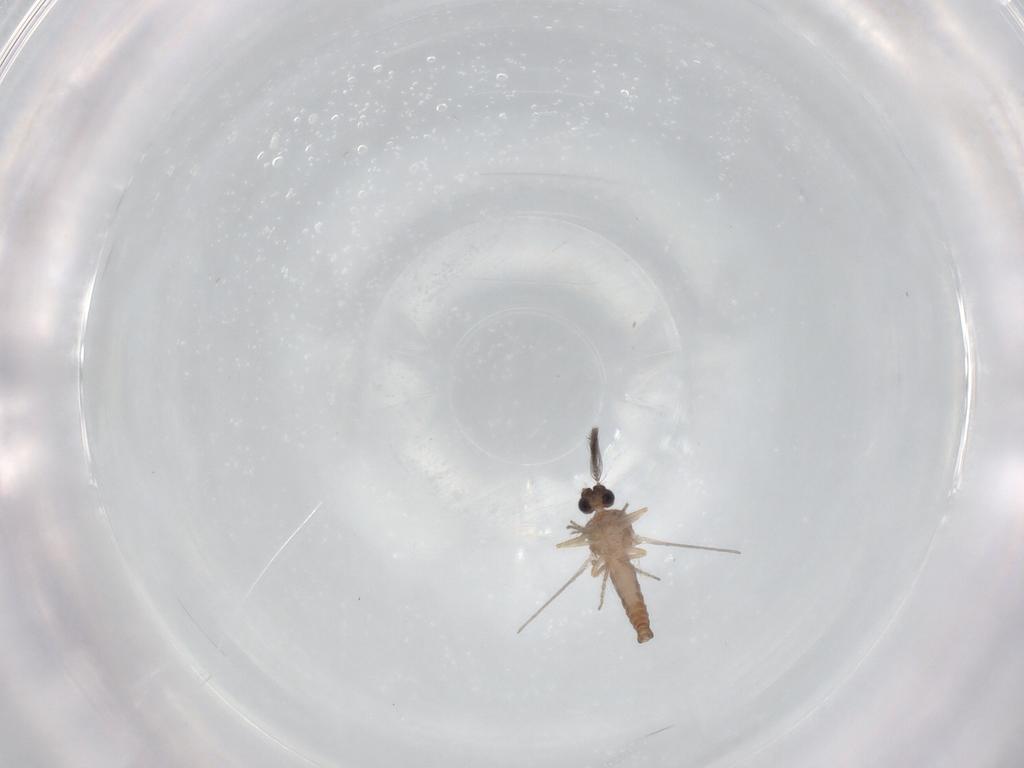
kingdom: Animalia
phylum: Arthropoda
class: Insecta
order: Diptera
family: Ceratopogonidae
